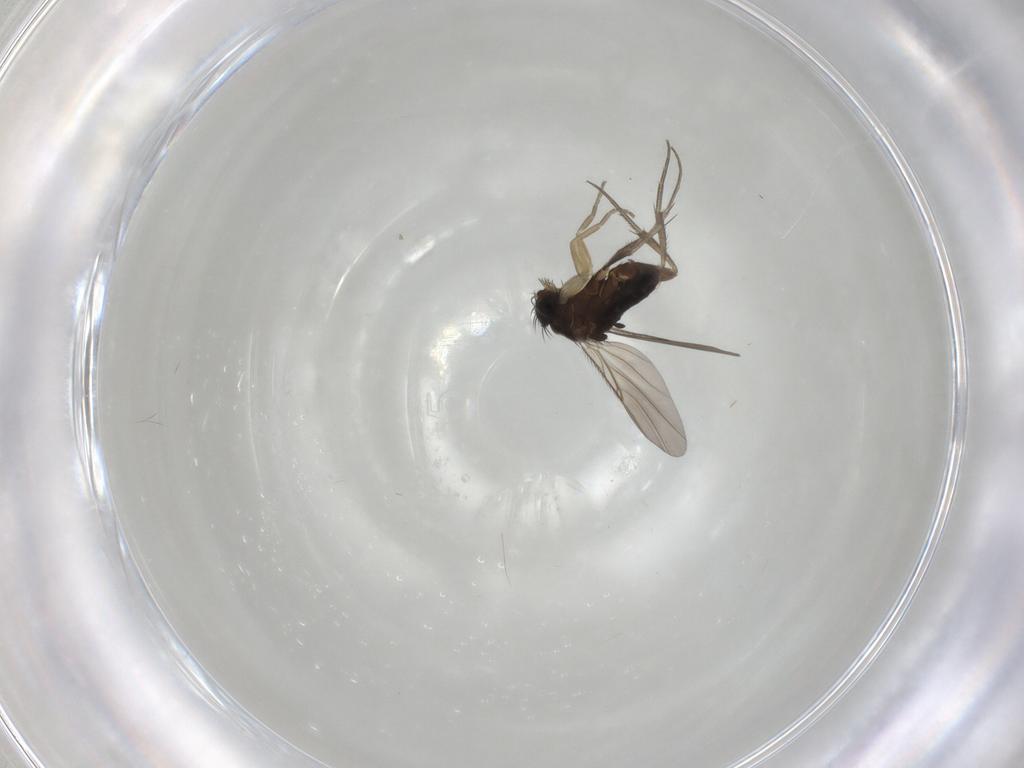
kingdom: Animalia
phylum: Arthropoda
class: Insecta
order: Diptera
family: Phoridae
